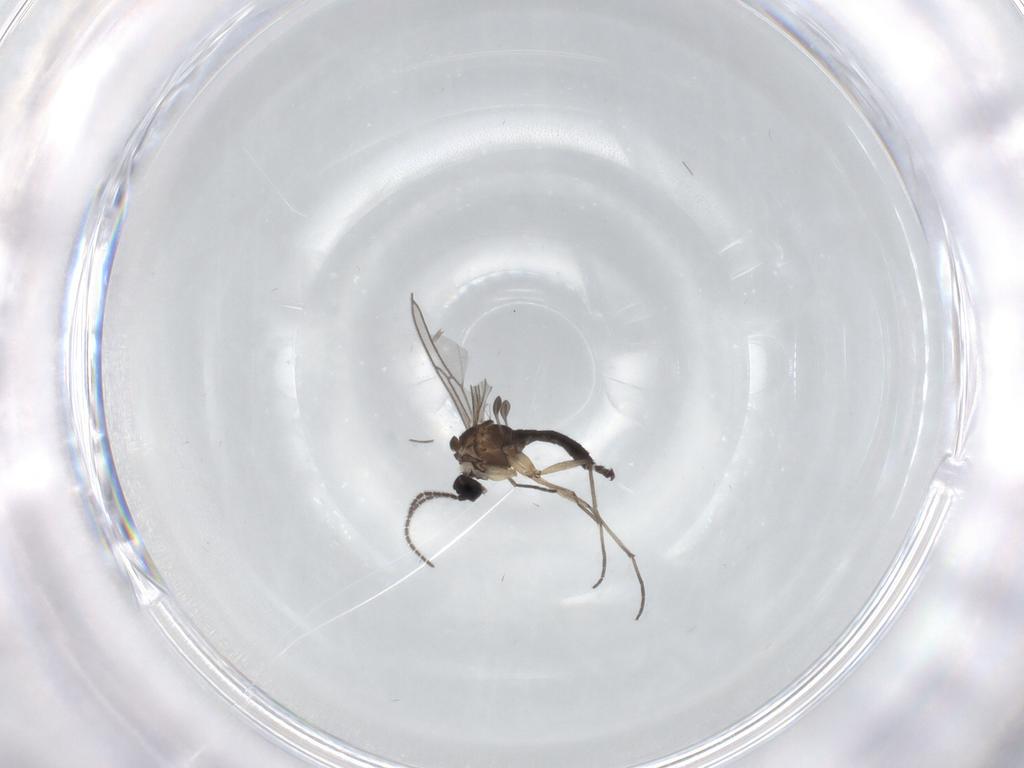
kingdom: Animalia
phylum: Arthropoda
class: Insecta
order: Diptera
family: Sciaridae
